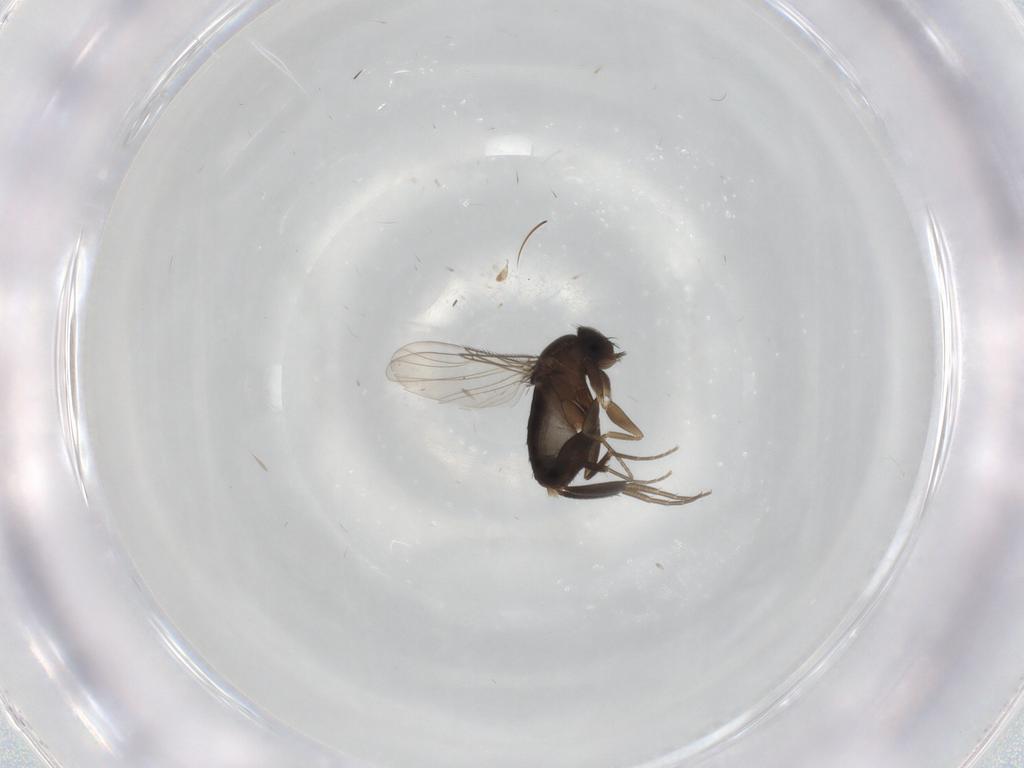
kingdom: Animalia
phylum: Arthropoda
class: Insecta
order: Diptera
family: Phoridae
